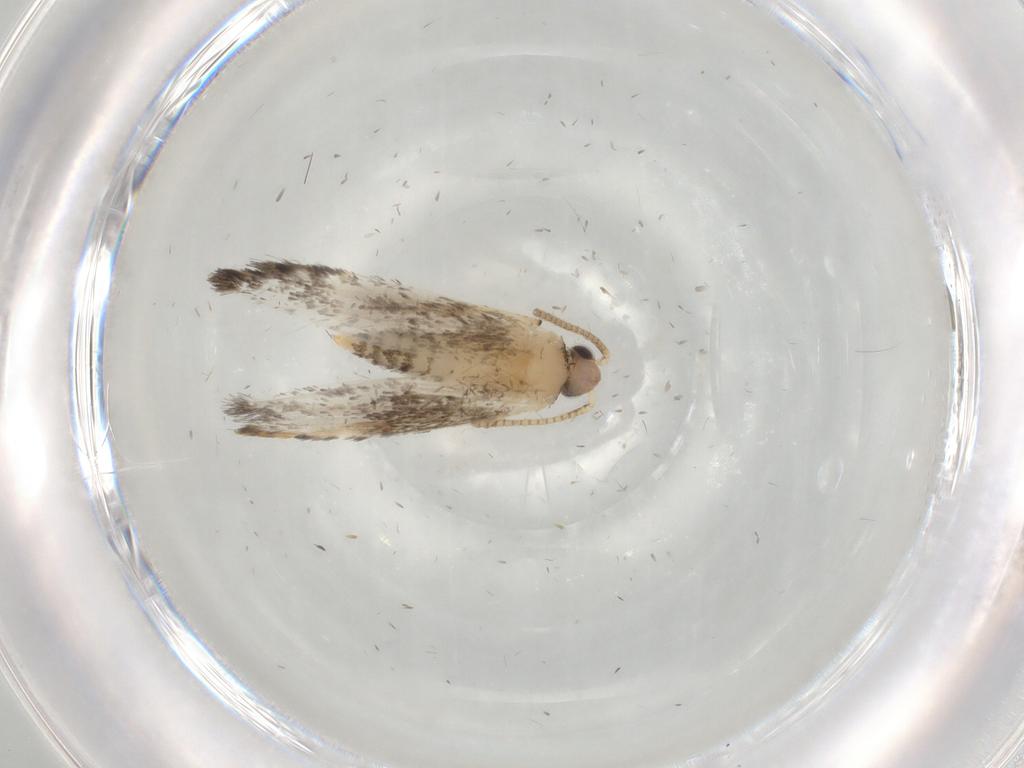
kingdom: Animalia
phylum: Arthropoda
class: Insecta
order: Lepidoptera
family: Tineidae
